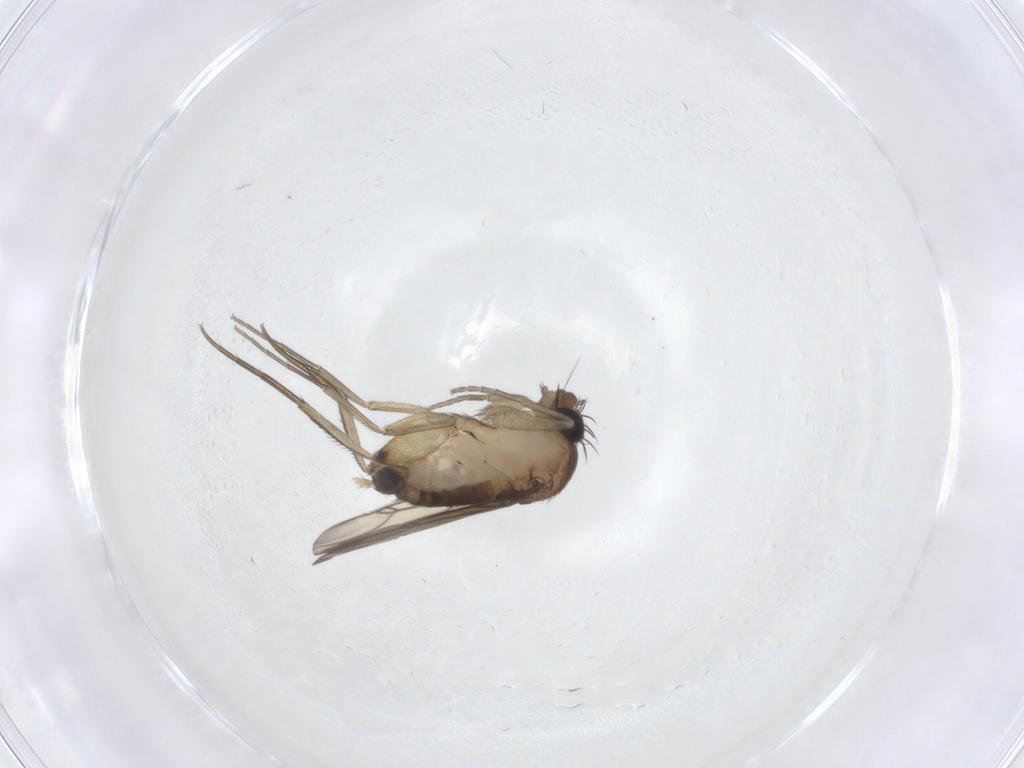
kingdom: Animalia
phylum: Arthropoda
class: Insecta
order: Diptera
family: Phoridae
